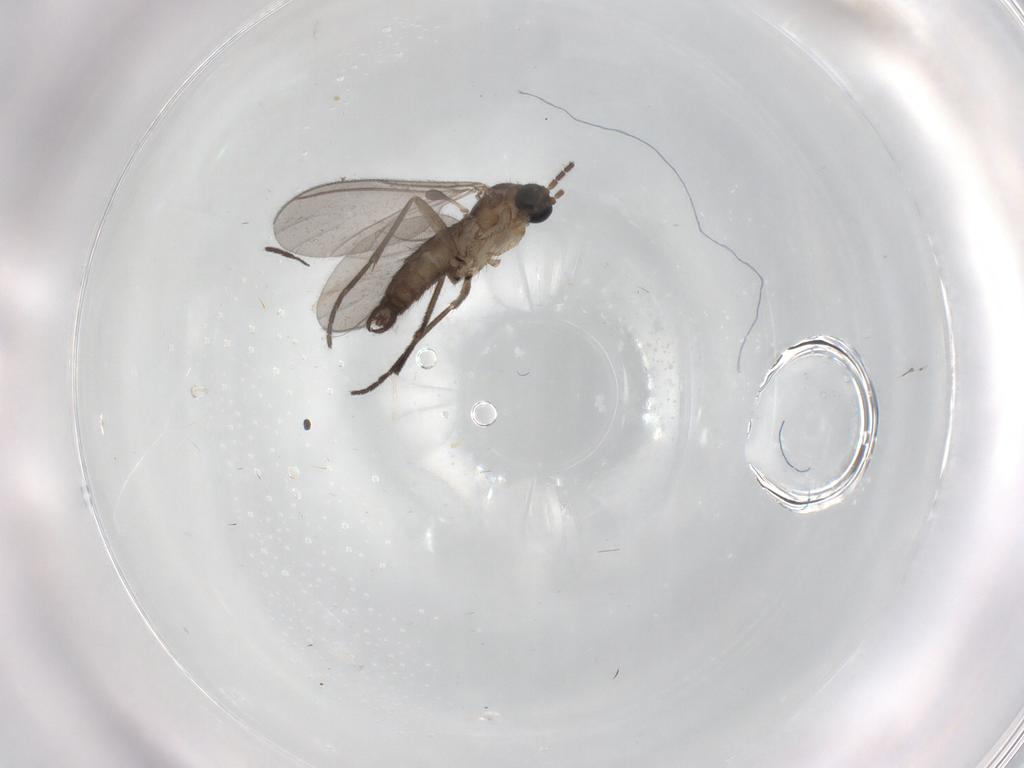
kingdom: Animalia
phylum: Arthropoda
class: Insecta
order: Diptera
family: Sciaridae
